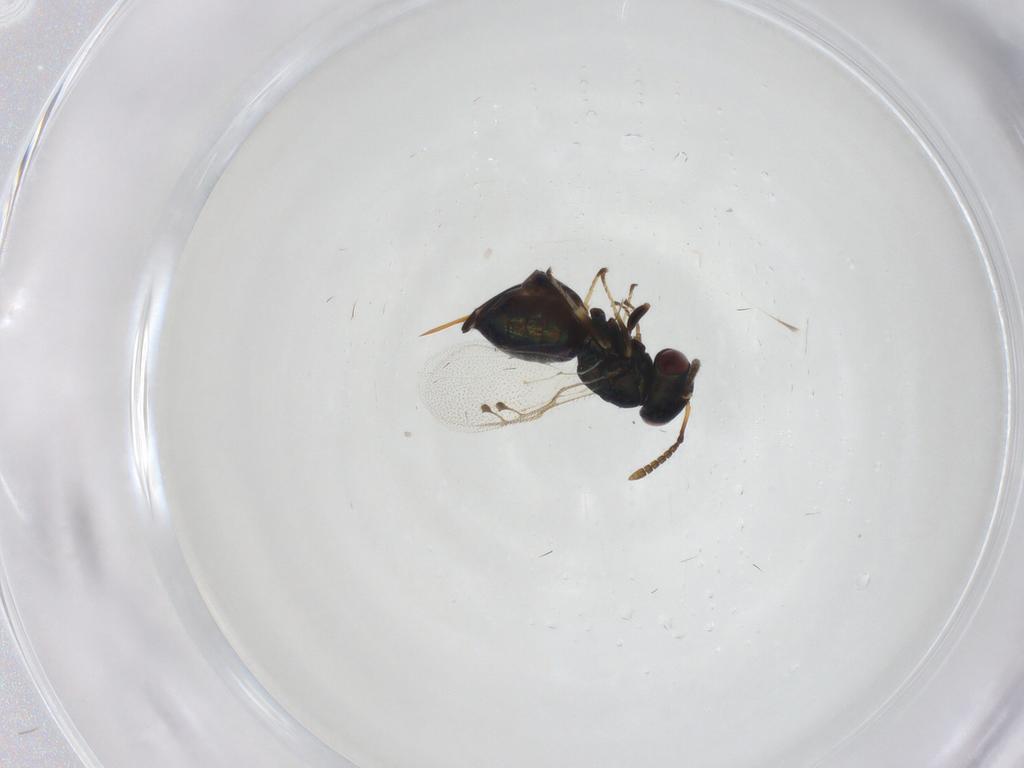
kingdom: Animalia
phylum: Arthropoda
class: Insecta
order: Hymenoptera
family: Pteromalidae
